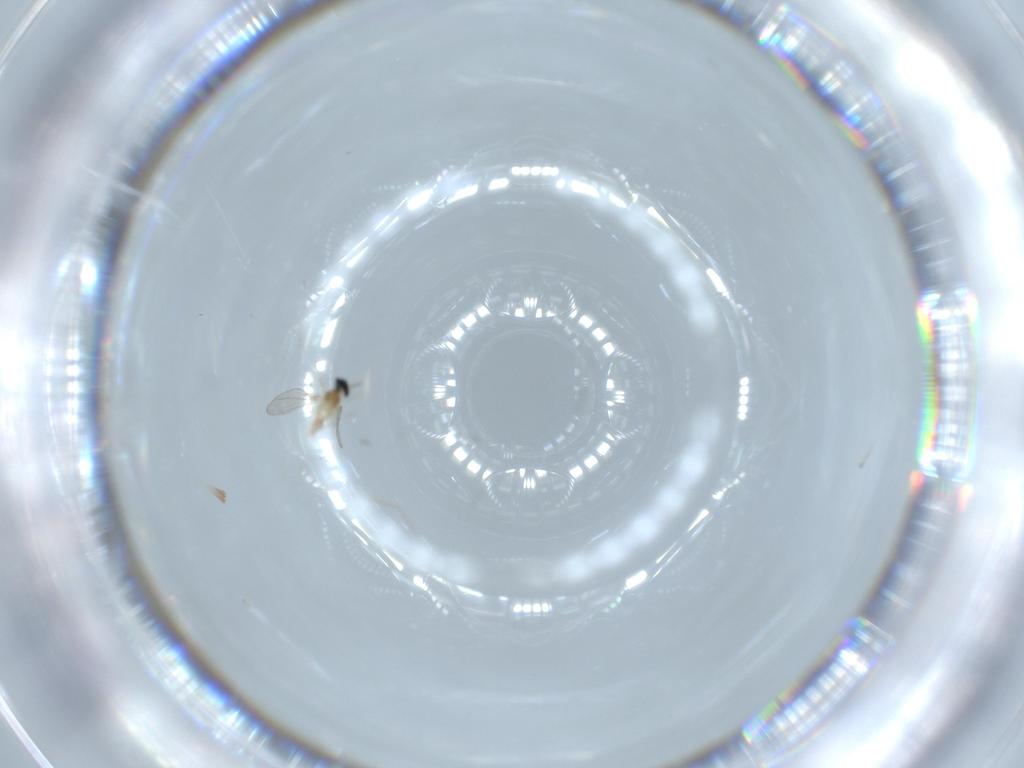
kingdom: Animalia
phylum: Arthropoda
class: Insecta
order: Diptera
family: Cecidomyiidae
